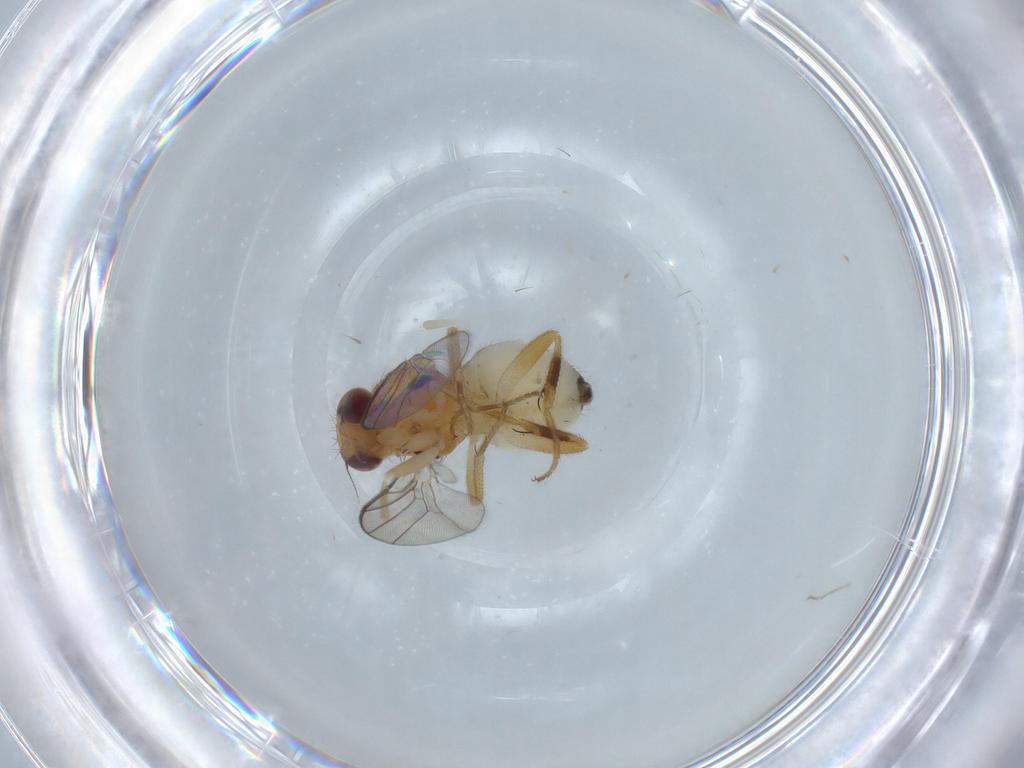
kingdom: Animalia
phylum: Arthropoda
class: Insecta
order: Diptera
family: Chloropidae
